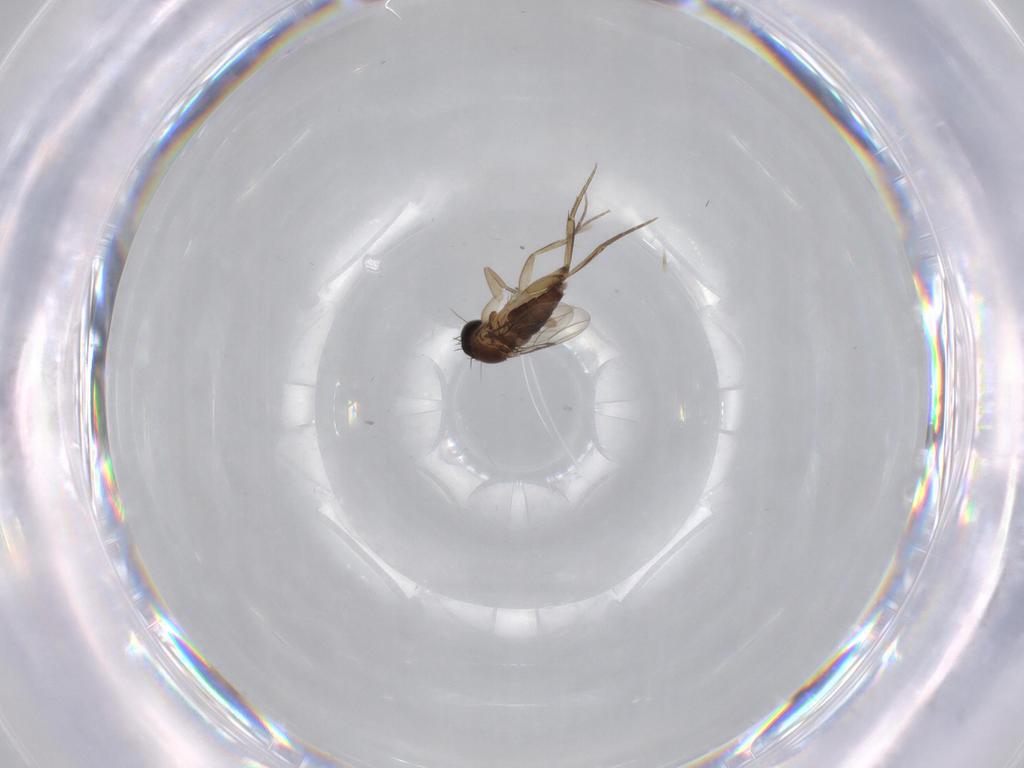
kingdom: Animalia
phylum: Arthropoda
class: Insecta
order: Diptera
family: Phoridae
